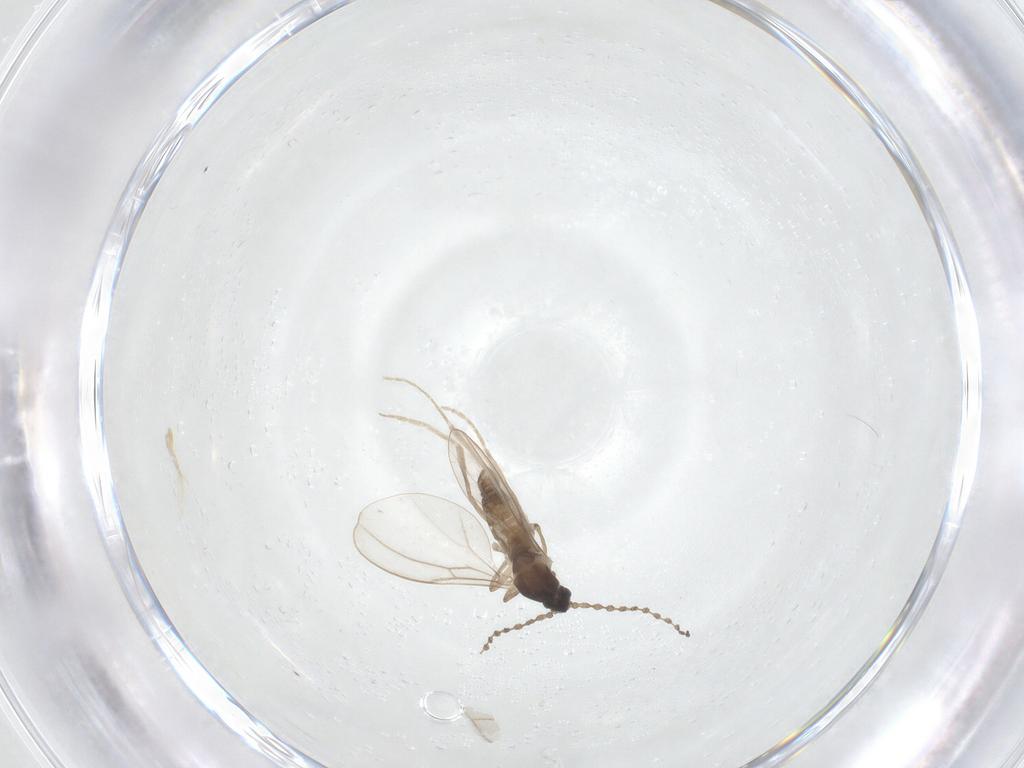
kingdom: Animalia
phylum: Arthropoda
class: Insecta
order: Diptera
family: Cecidomyiidae
